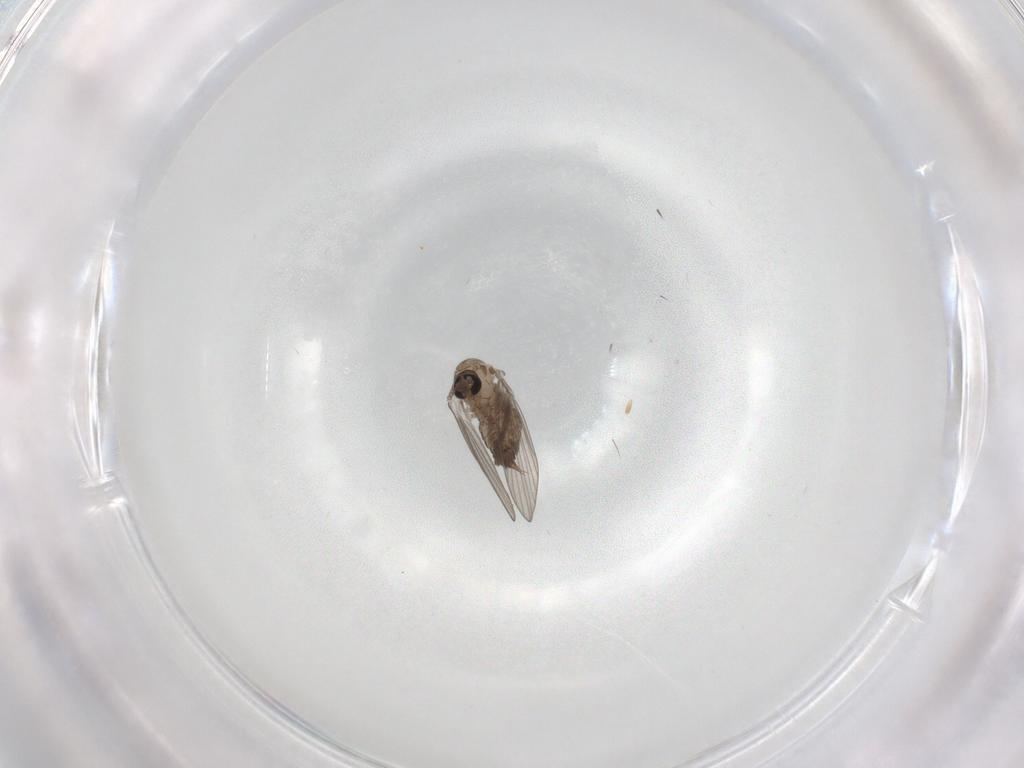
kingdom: Animalia
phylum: Arthropoda
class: Insecta
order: Diptera
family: Psychodidae
